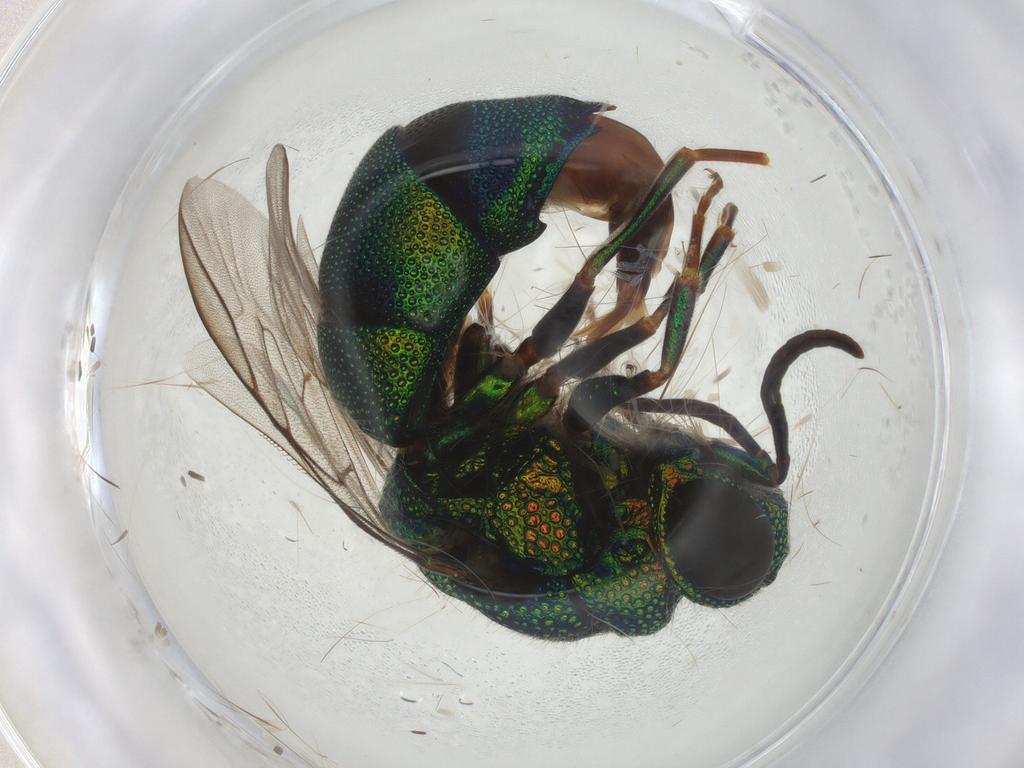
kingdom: Animalia
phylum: Arthropoda
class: Insecta
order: Hymenoptera
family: Chrysididae
